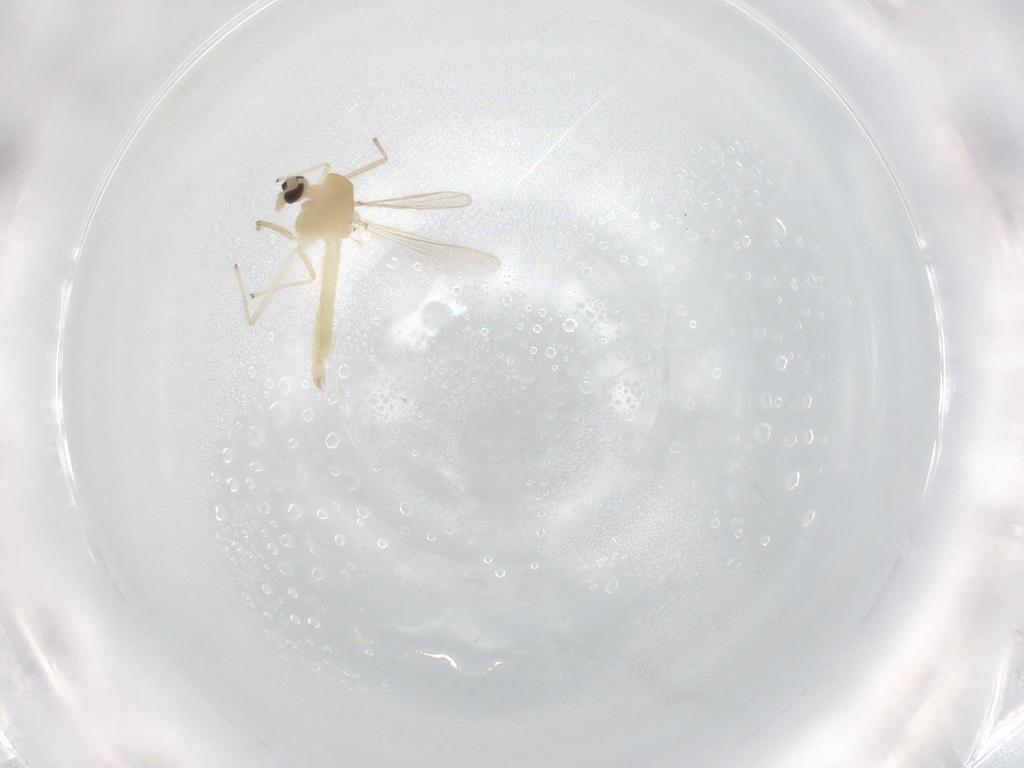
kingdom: Animalia
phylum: Arthropoda
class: Insecta
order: Diptera
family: Chironomidae
